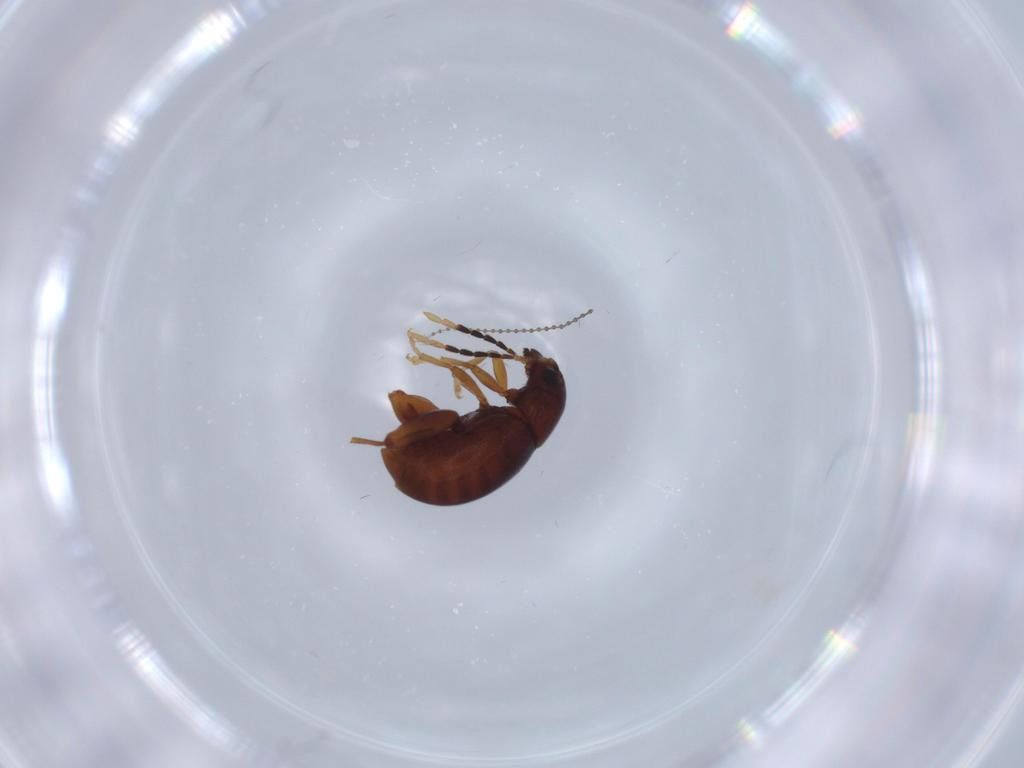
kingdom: Animalia
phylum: Arthropoda
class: Insecta
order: Coleoptera
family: Chrysomelidae
